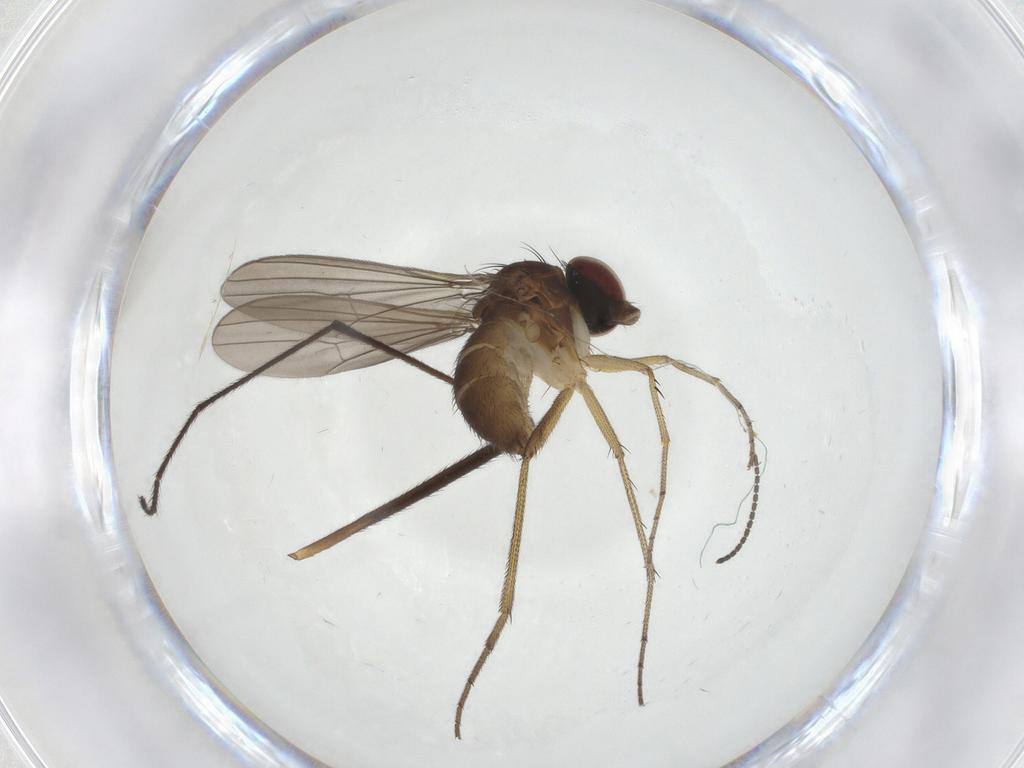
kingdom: Animalia
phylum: Arthropoda
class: Insecta
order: Diptera
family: Dolichopodidae
